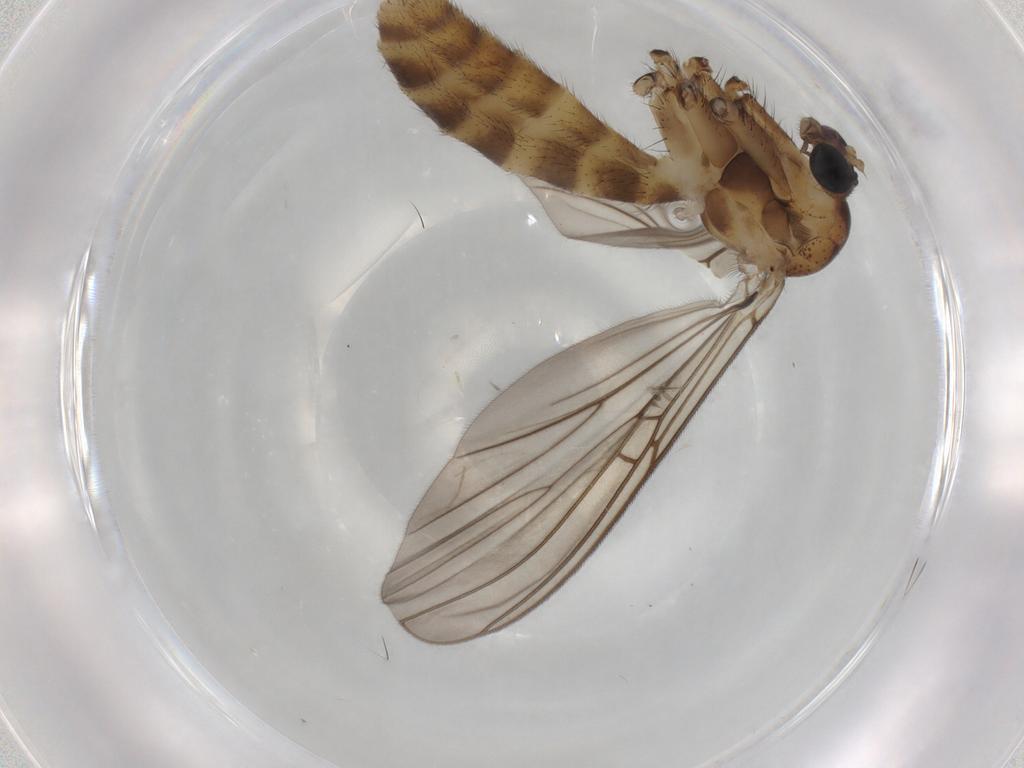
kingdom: Animalia
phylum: Arthropoda
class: Insecta
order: Diptera
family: Mycetophilidae
